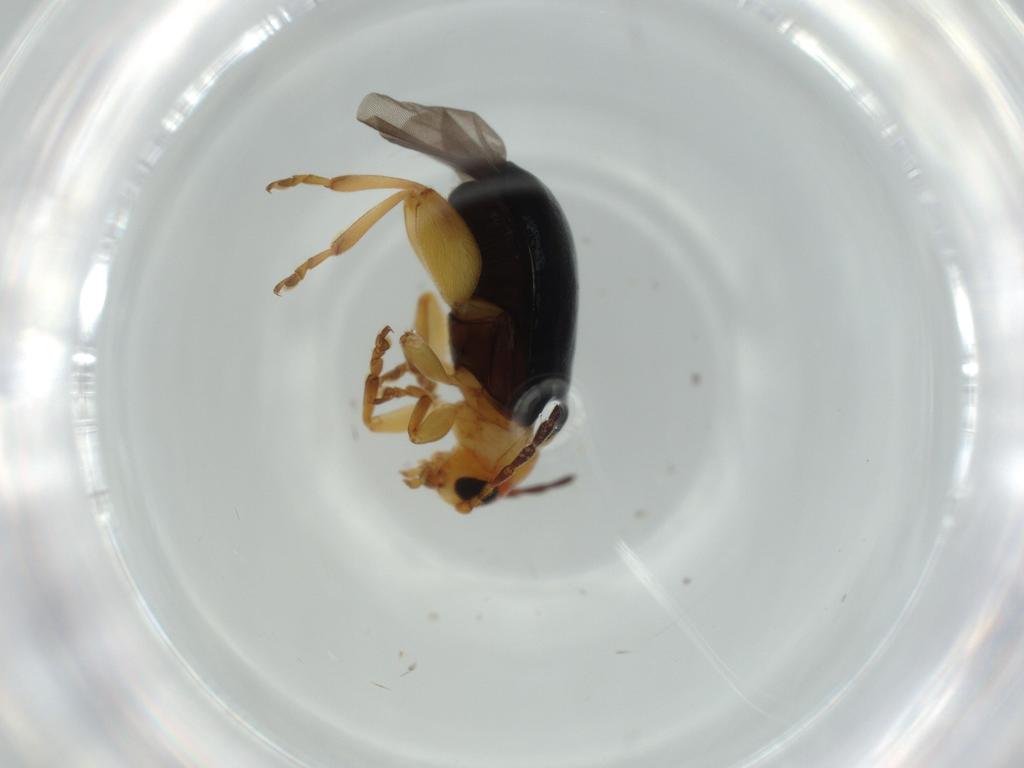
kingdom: Animalia
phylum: Arthropoda
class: Insecta
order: Coleoptera
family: Chrysomelidae
